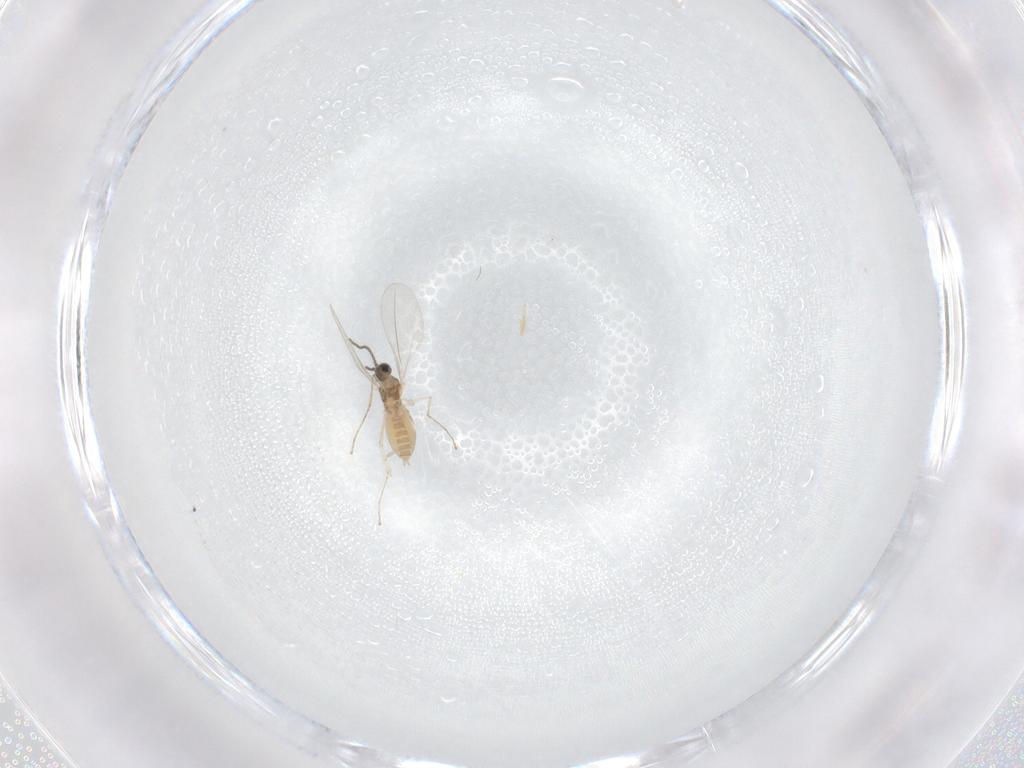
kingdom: Animalia
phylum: Arthropoda
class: Insecta
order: Diptera
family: Cecidomyiidae
